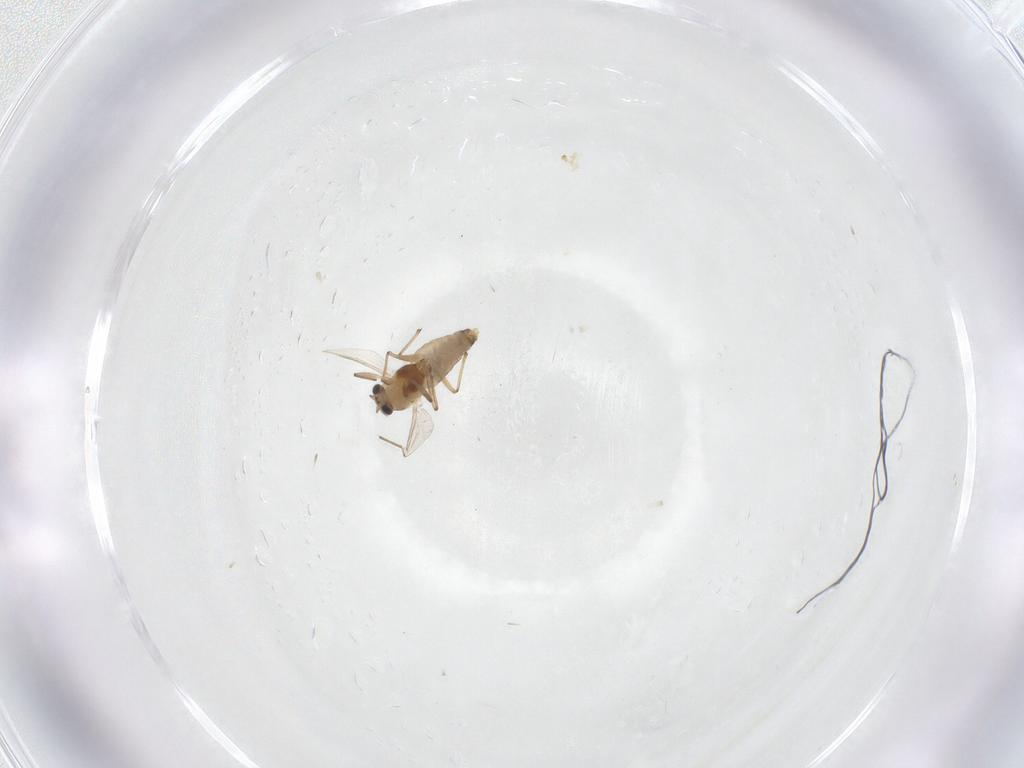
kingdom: Animalia
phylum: Arthropoda
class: Insecta
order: Diptera
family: Chironomidae
